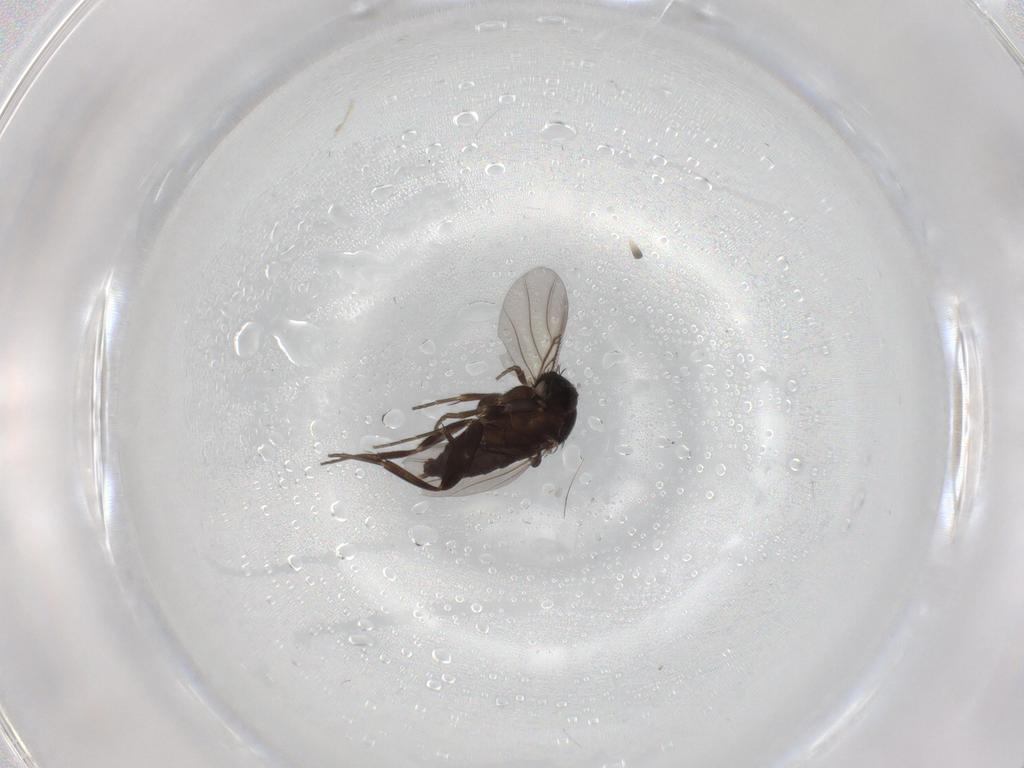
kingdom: Animalia
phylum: Arthropoda
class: Insecta
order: Diptera
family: Phoridae
